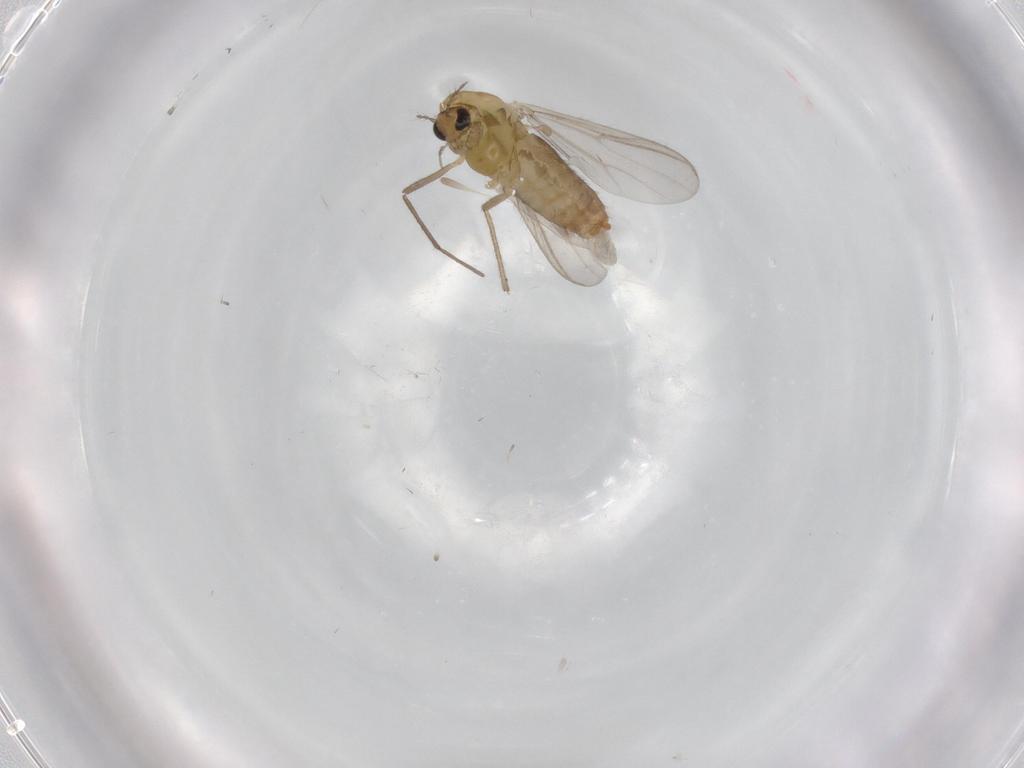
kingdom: Animalia
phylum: Arthropoda
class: Insecta
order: Diptera
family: Chironomidae
